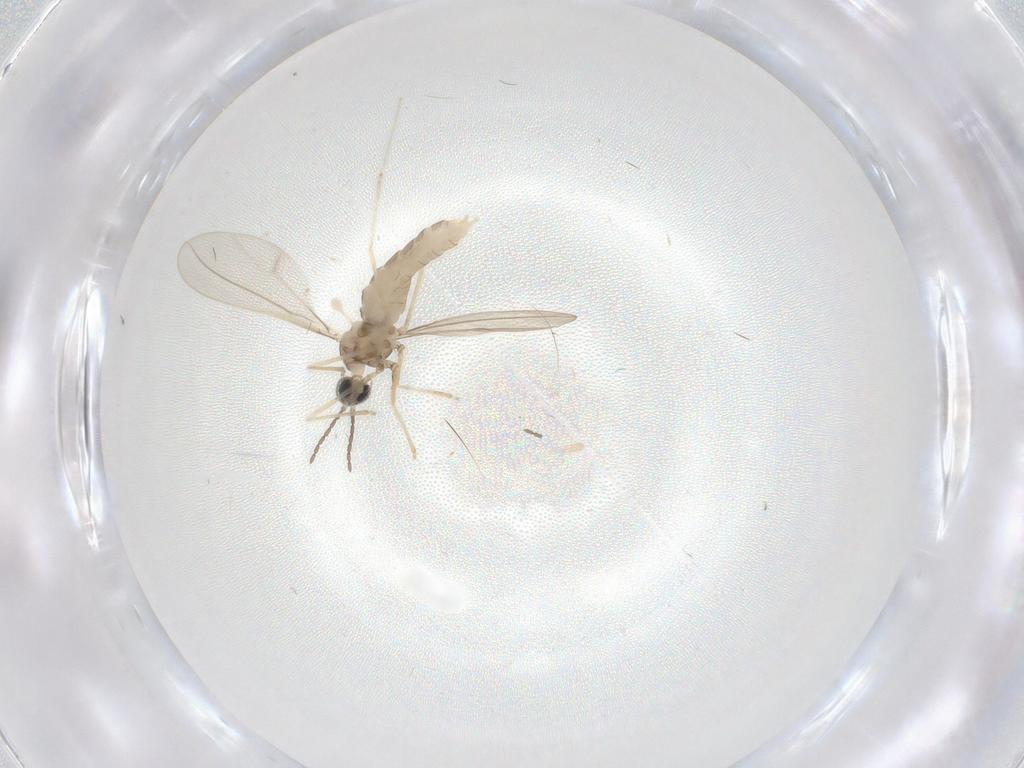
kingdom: Animalia
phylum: Arthropoda
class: Insecta
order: Diptera
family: Cecidomyiidae
